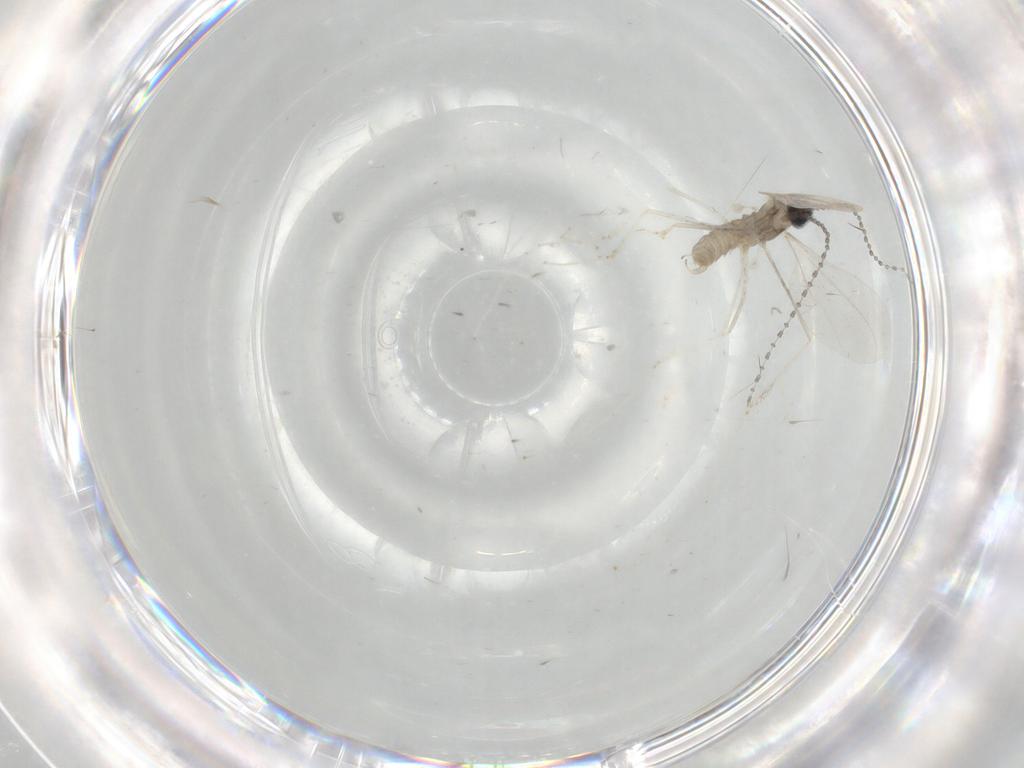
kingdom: Animalia
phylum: Arthropoda
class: Insecta
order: Diptera
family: Cecidomyiidae
